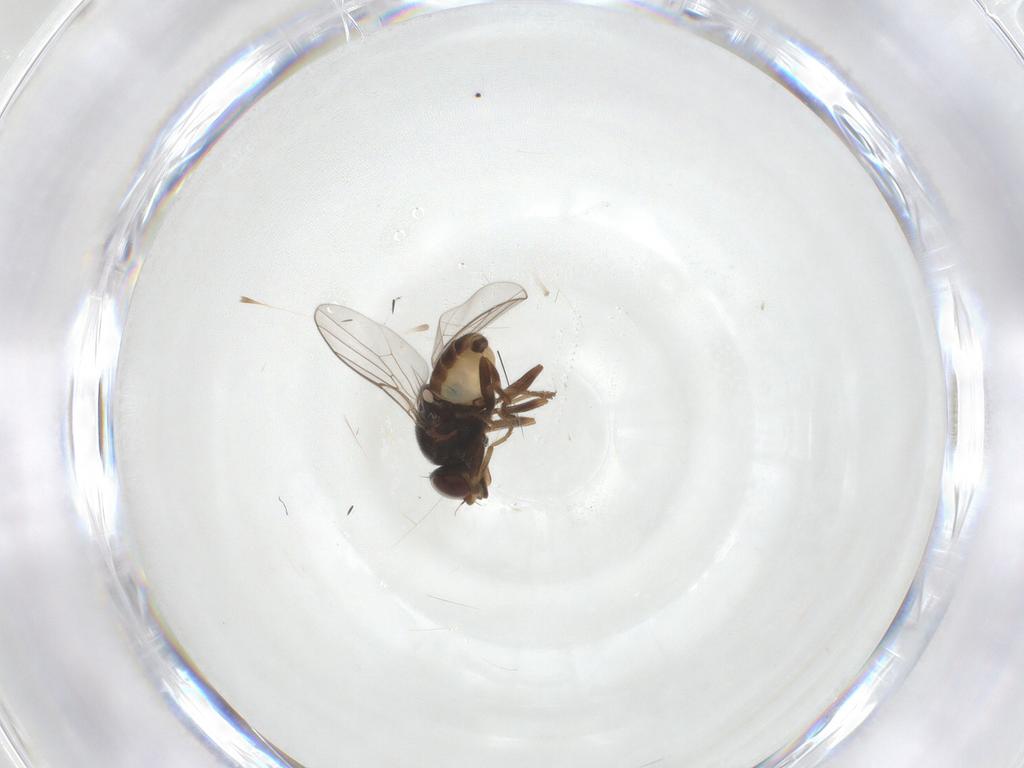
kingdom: Animalia
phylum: Arthropoda
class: Insecta
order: Diptera
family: Chloropidae
